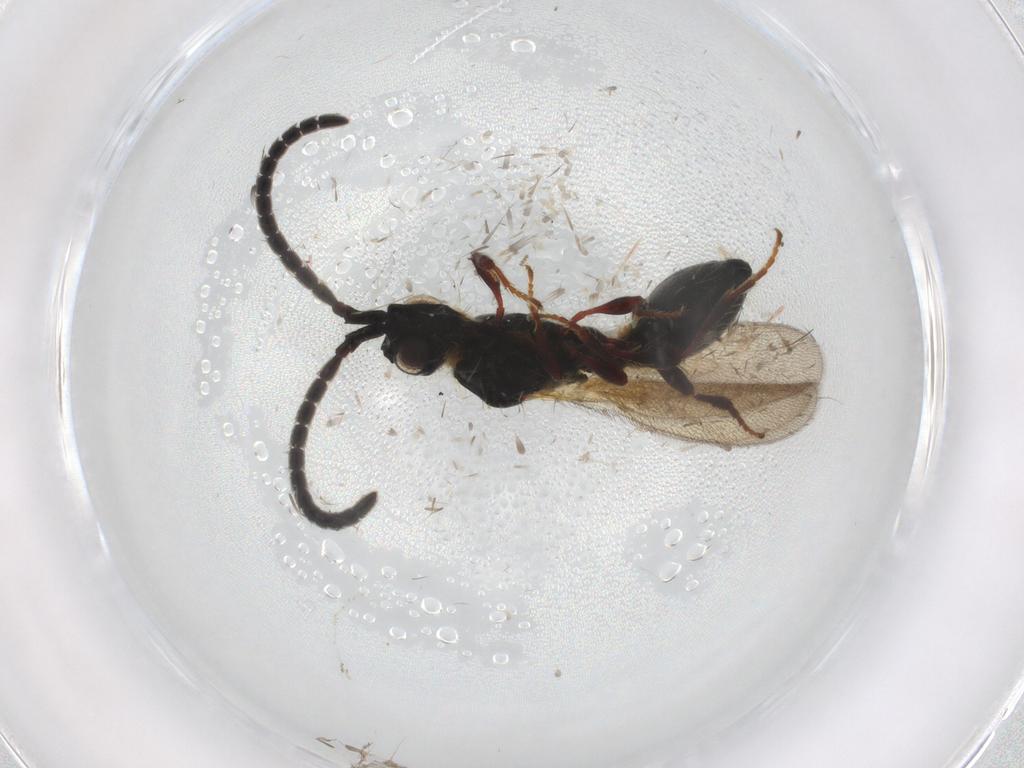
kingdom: Animalia
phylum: Arthropoda
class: Insecta
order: Hymenoptera
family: Diapriidae
